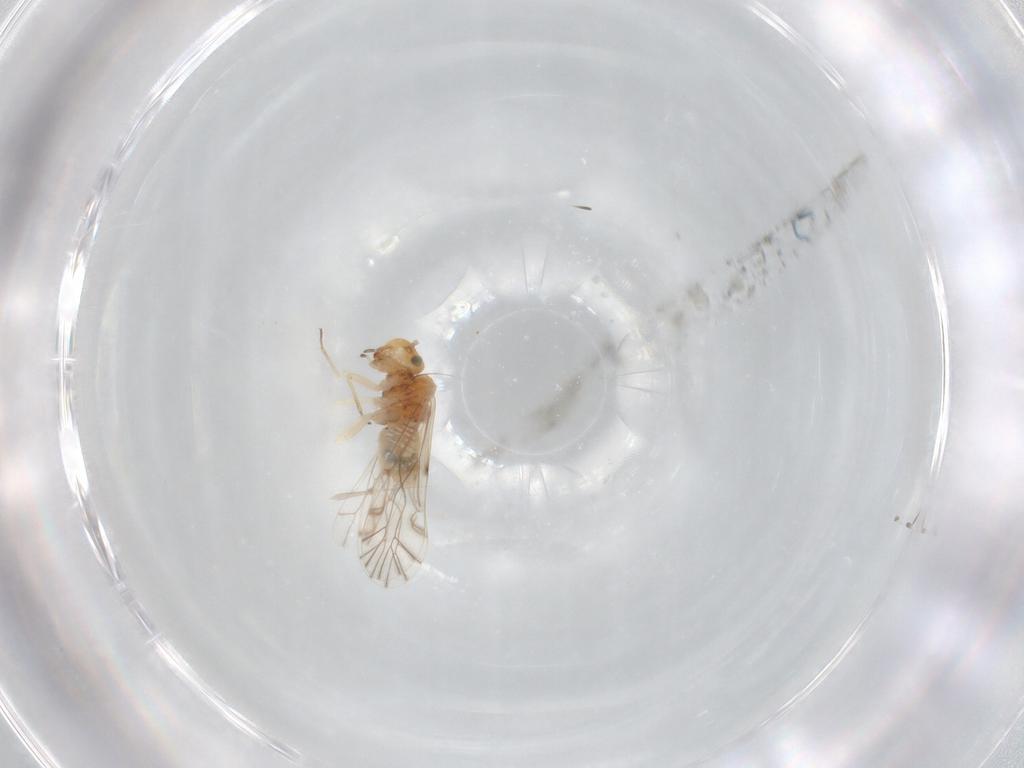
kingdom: Animalia
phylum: Arthropoda
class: Insecta
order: Psocodea
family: Lachesillidae
